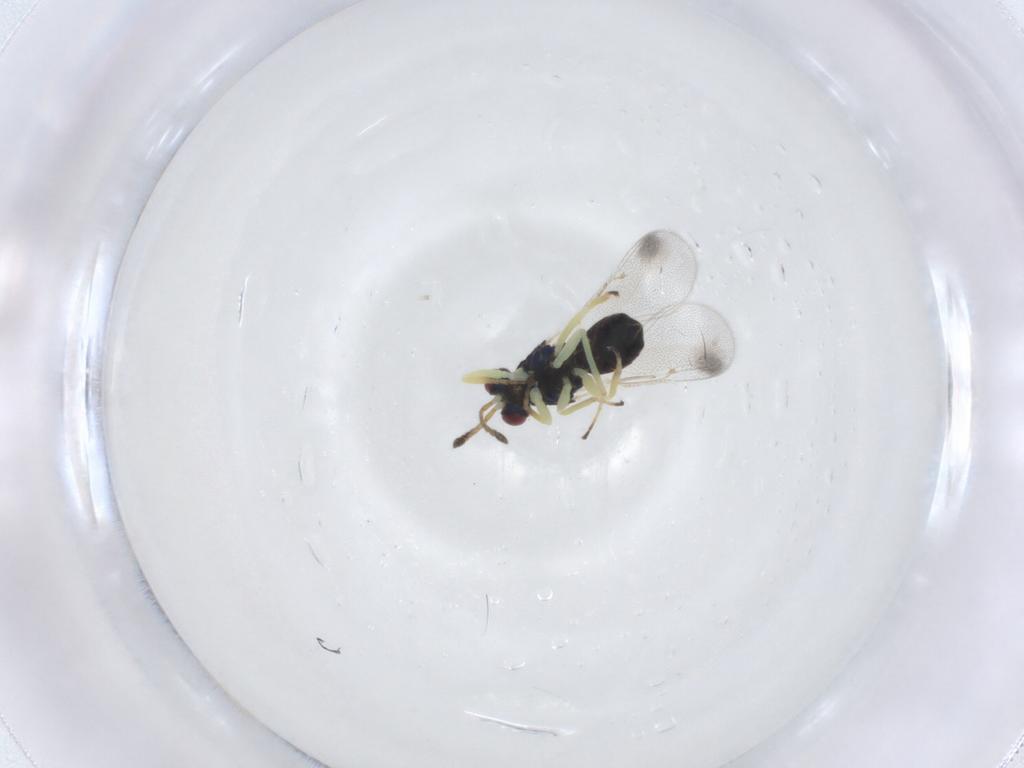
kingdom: Animalia
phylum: Arthropoda
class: Insecta
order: Hymenoptera
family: Eulophidae
